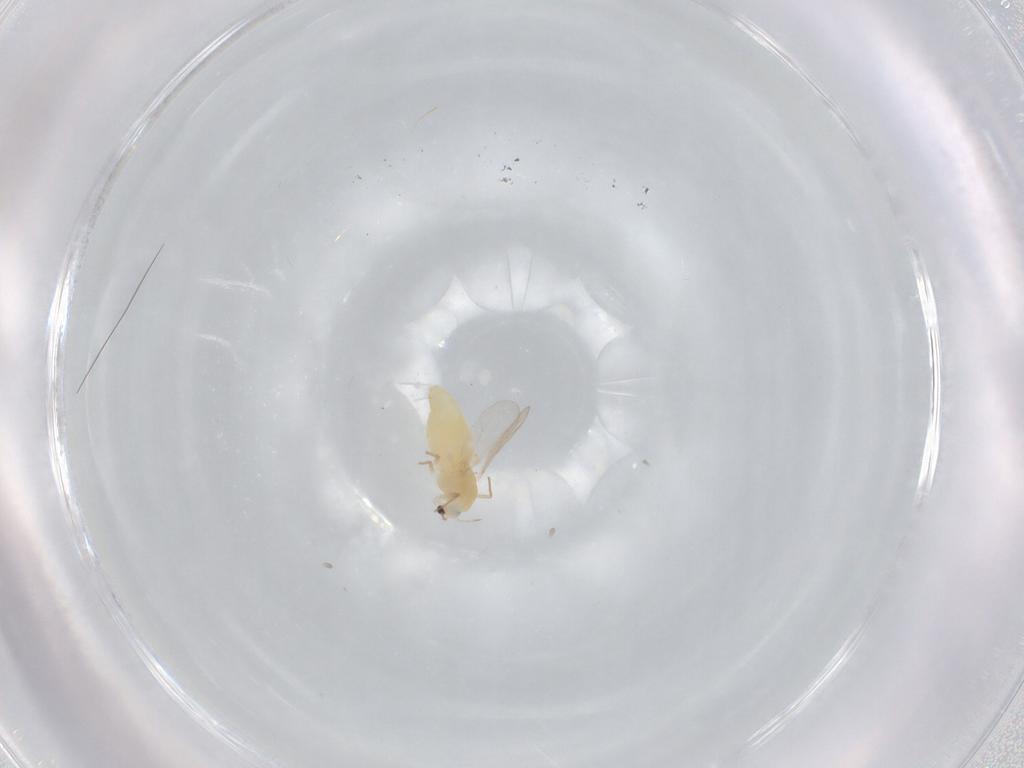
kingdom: Animalia
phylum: Arthropoda
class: Insecta
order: Diptera
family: Chironomidae
